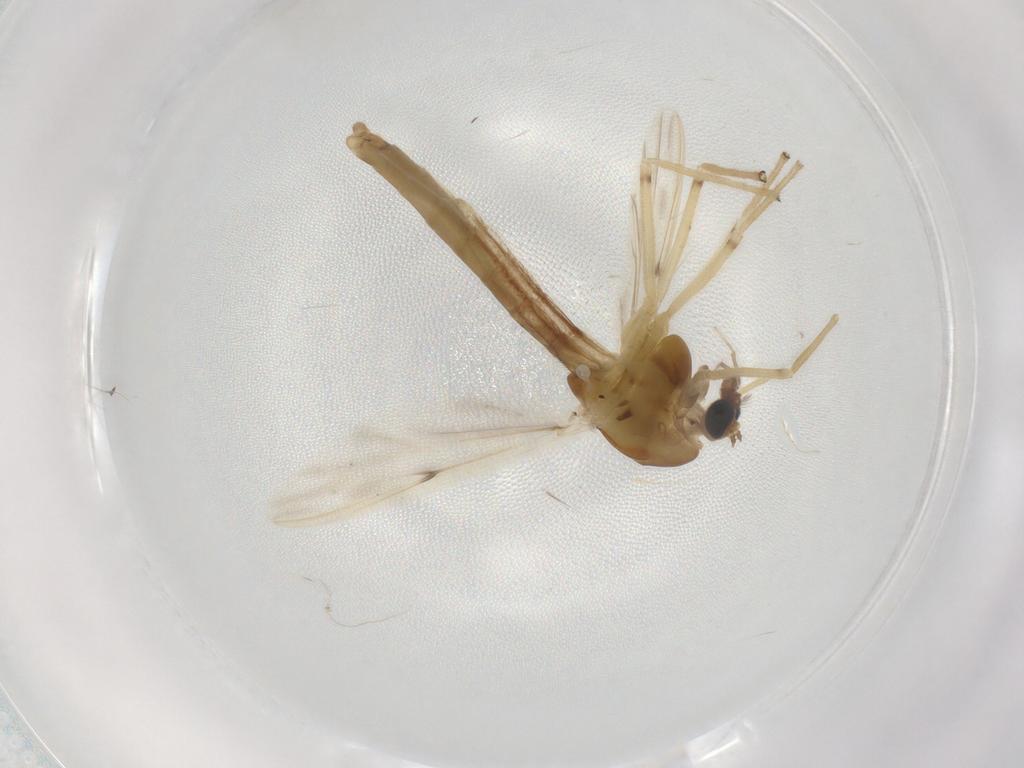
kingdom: Animalia
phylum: Arthropoda
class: Insecta
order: Diptera
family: Chironomidae
